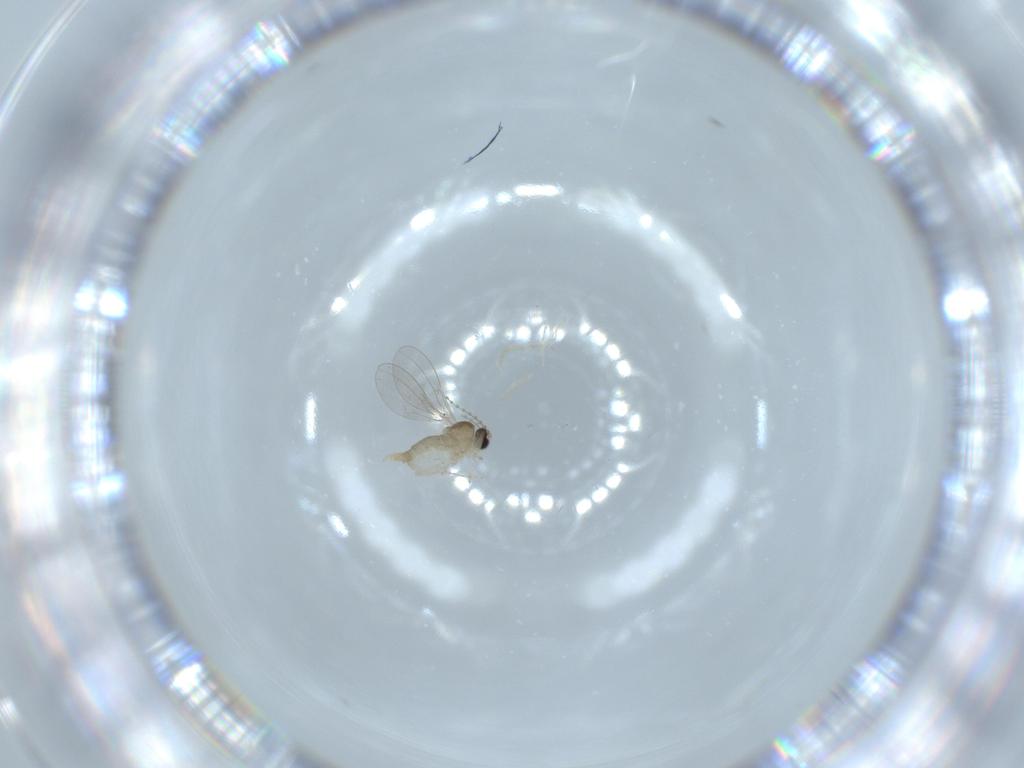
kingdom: Animalia
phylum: Arthropoda
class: Insecta
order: Diptera
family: Cecidomyiidae
